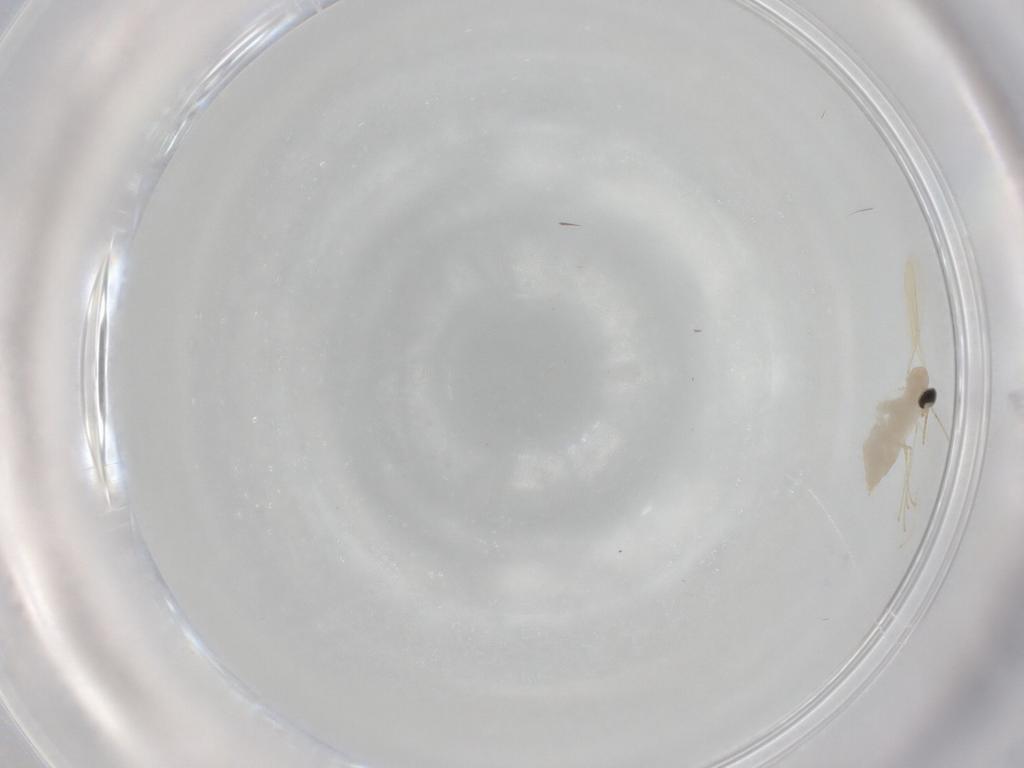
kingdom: Animalia
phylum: Arthropoda
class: Insecta
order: Diptera
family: Cecidomyiidae
